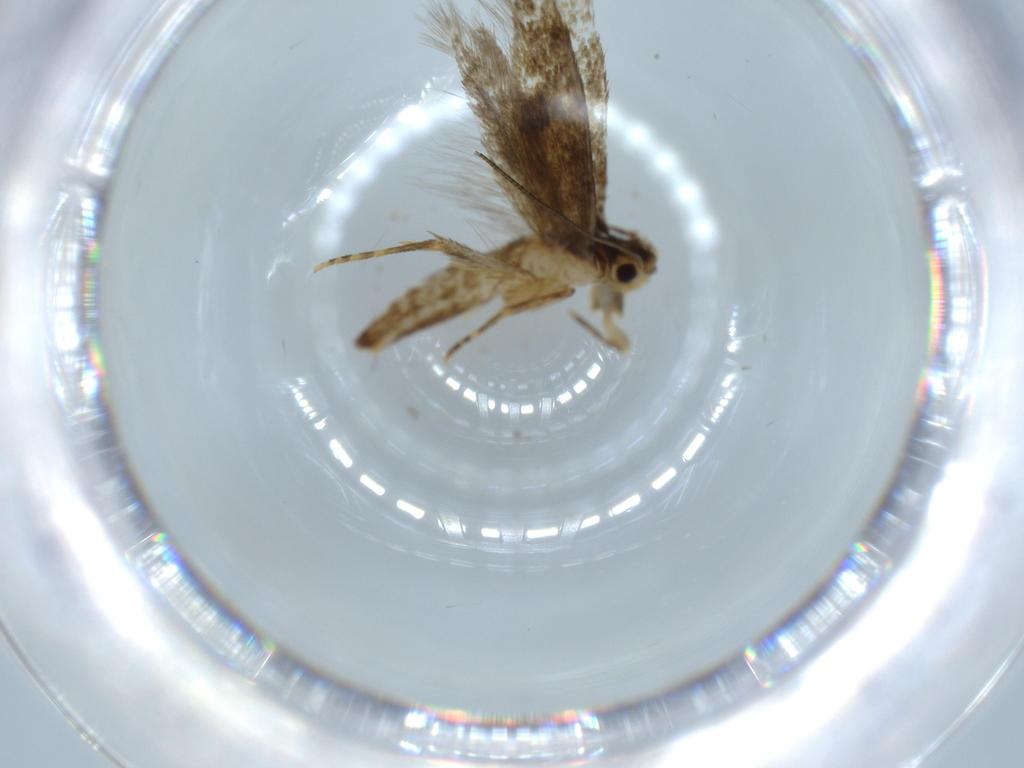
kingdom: Animalia
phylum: Arthropoda
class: Insecta
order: Lepidoptera
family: Tineidae
